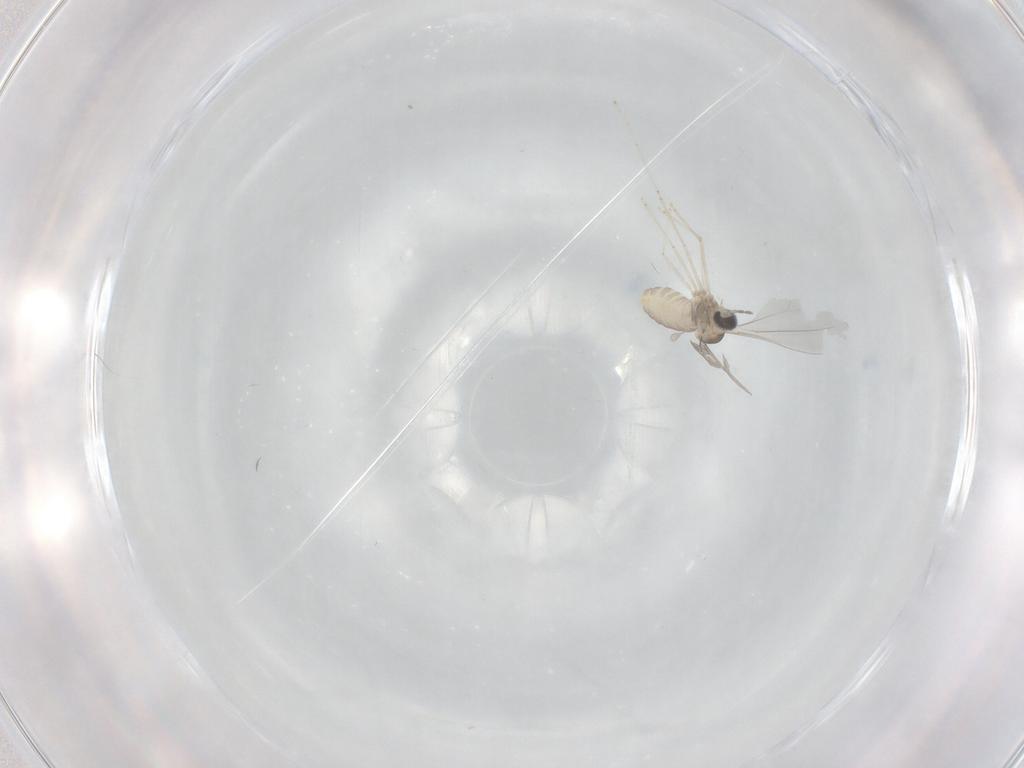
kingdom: Animalia
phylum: Arthropoda
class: Insecta
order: Diptera
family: Cecidomyiidae
